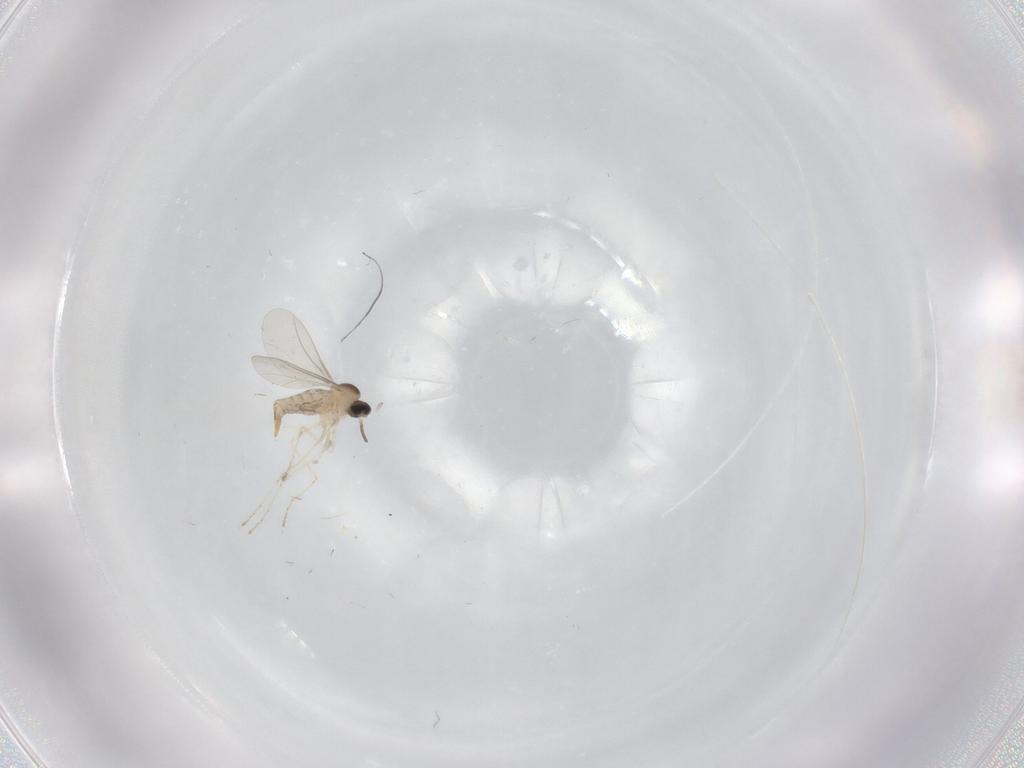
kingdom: Animalia
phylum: Arthropoda
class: Insecta
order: Diptera
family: Cecidomyiidae
